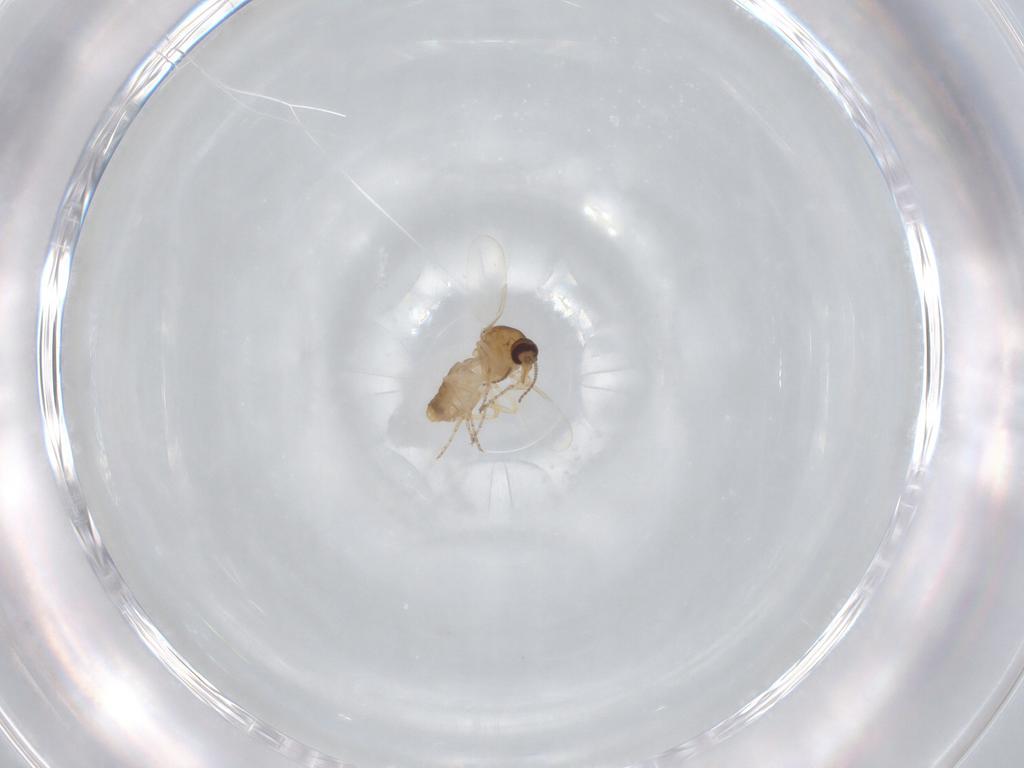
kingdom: Animalia
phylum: Arthropoda
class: Insecta
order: Diptera
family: Ceratopogonidae
